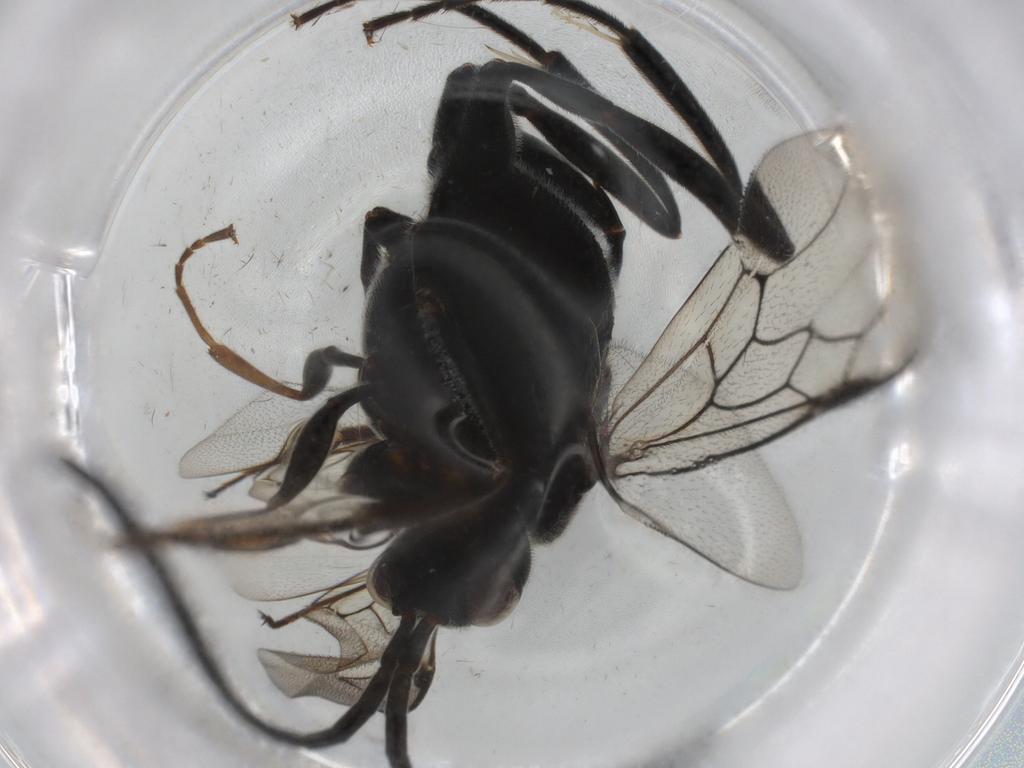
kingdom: Animalia
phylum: Arthropoda
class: Insecta
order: Hymenoptera
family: Evaniidae
